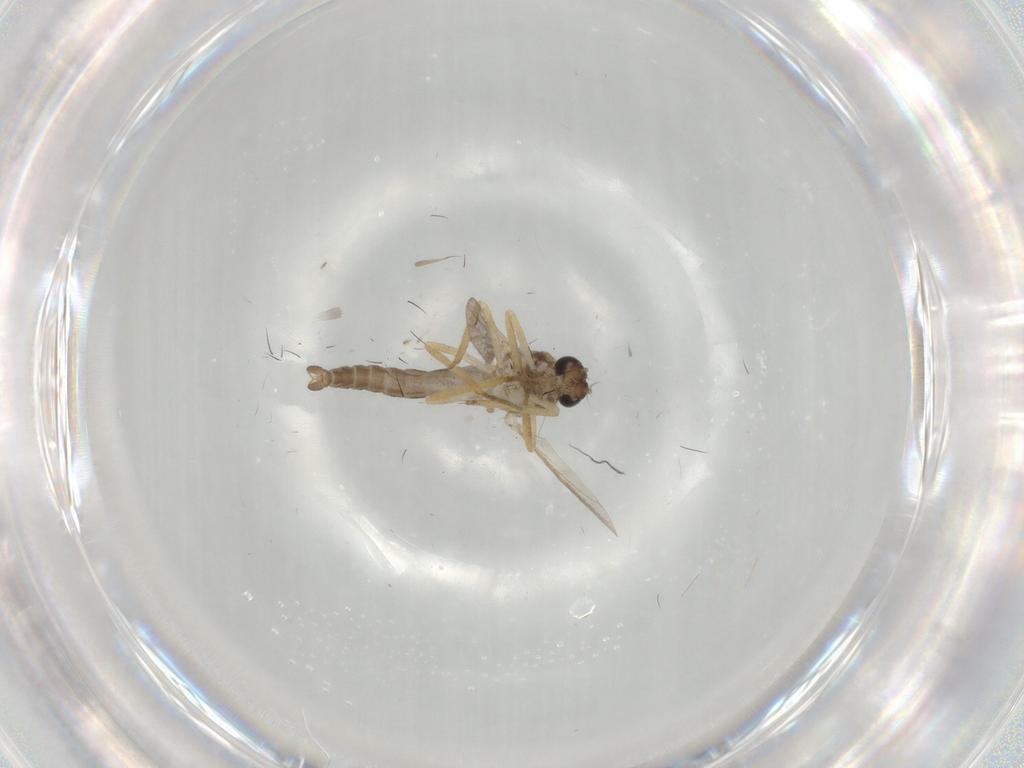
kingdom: Animalia
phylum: Arthropoda
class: Insecta
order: Diptera
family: Ceratopogonidae
